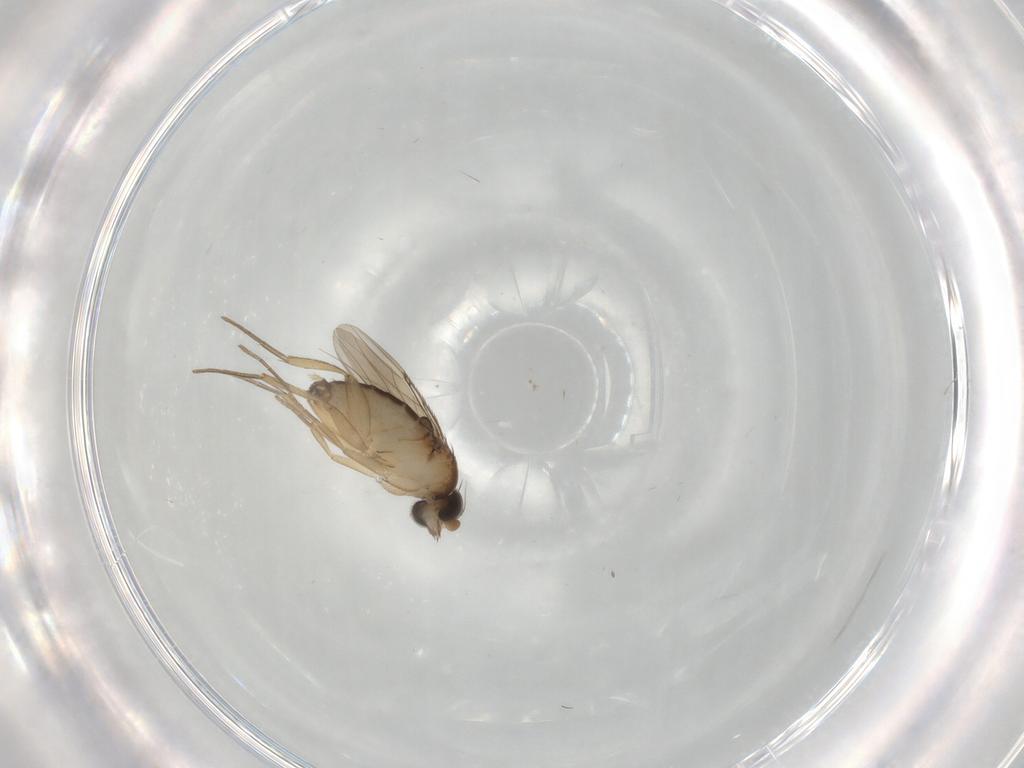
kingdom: Animalia
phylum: Arthropoda
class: Insecta
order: Diptera
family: Phoridae
